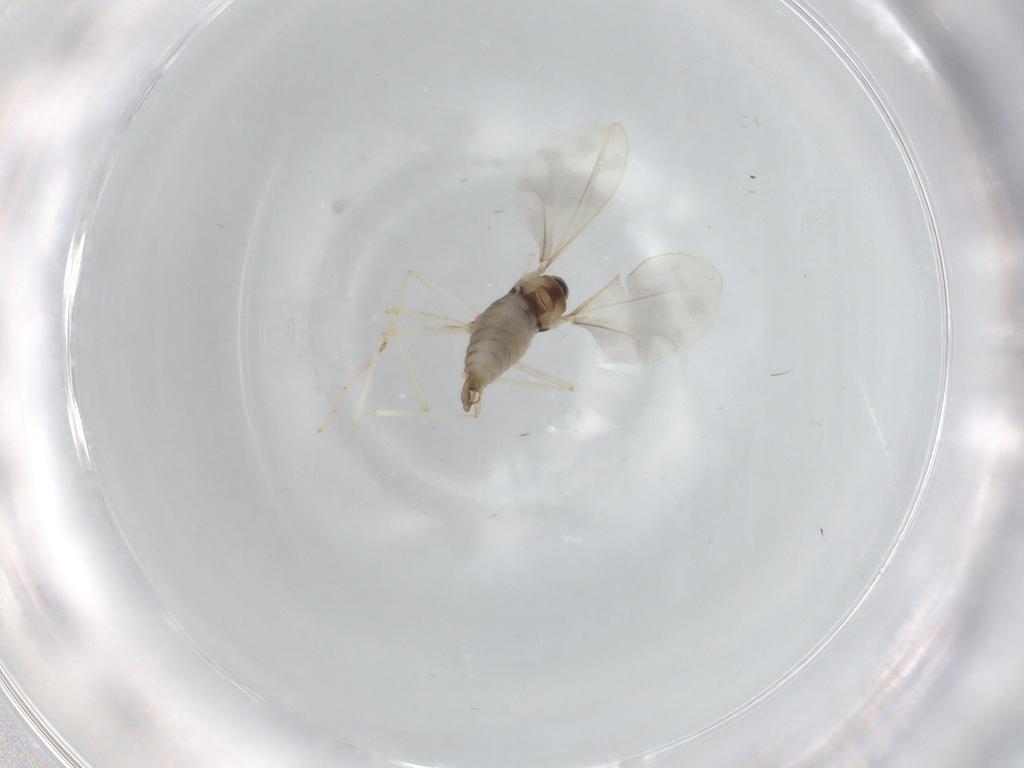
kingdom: Animalia
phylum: Arthropoda
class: Insecta
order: Diptera
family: Cecidomyiidae
